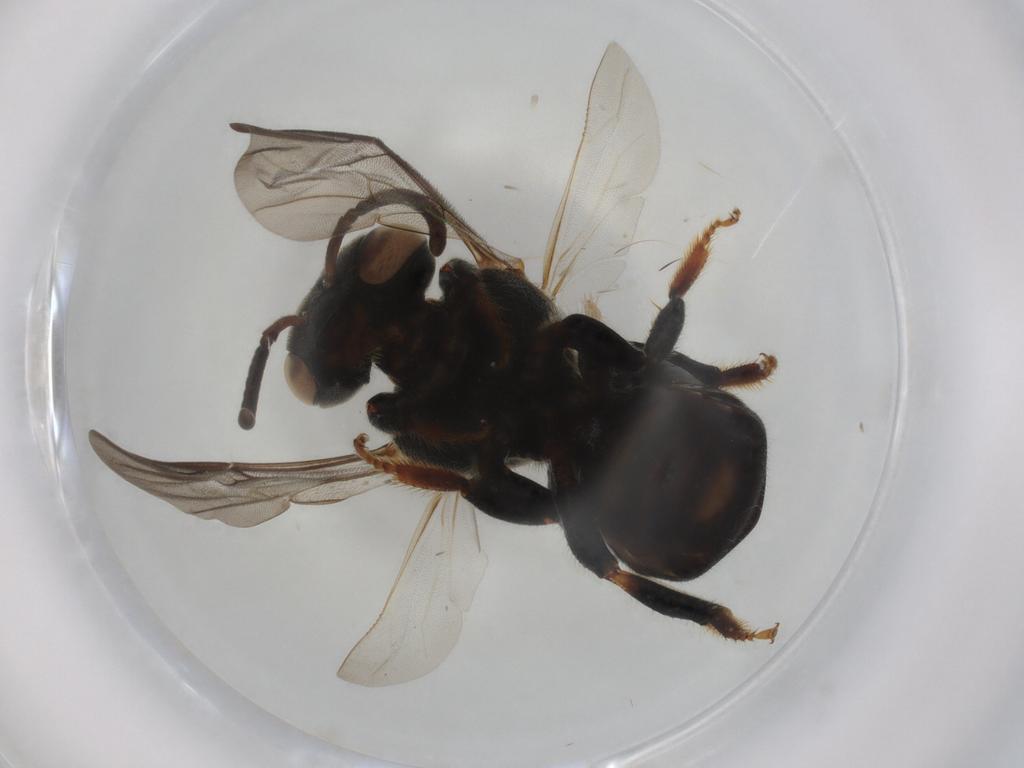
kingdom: Animalia
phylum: Arthropoda
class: Insecta
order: Hymenoptera
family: Apidae
